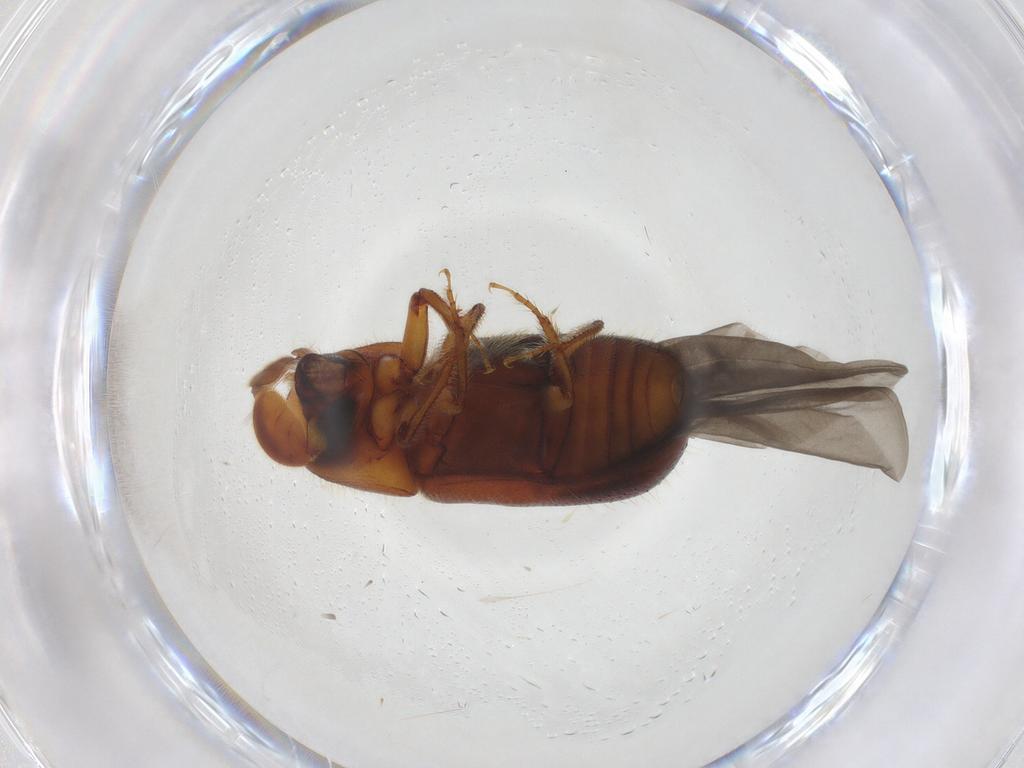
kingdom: Animalia
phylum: Arthropoda
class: Insecta
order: Coleoptera
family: Curculionidae
